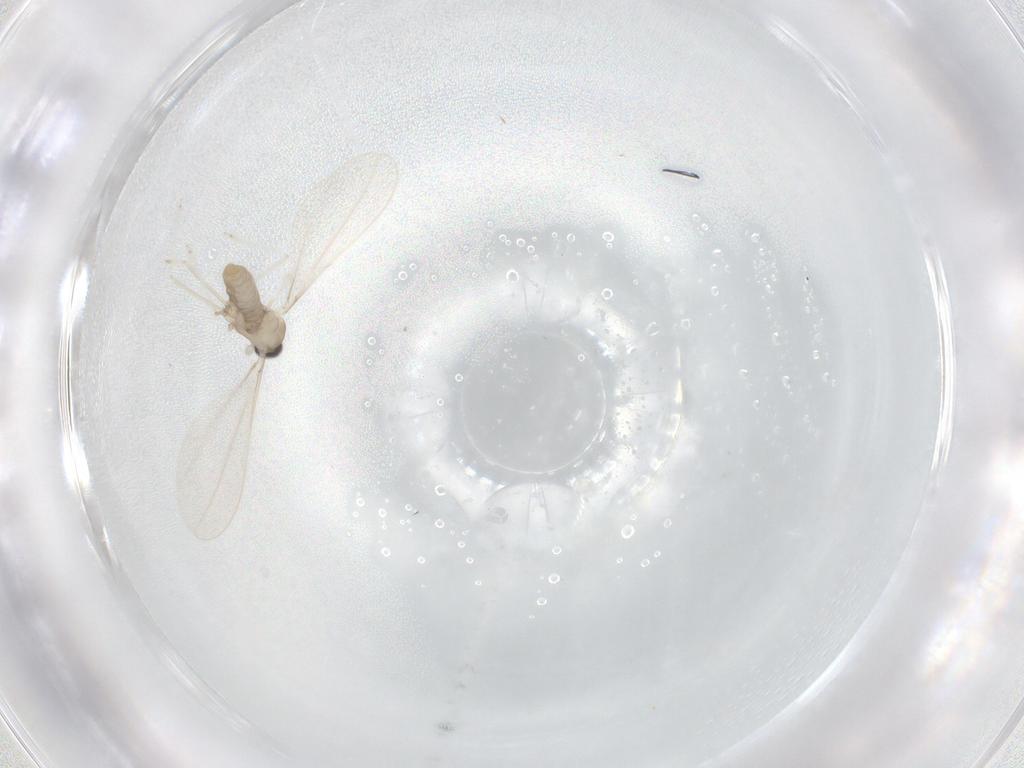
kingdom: Animalia
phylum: Arthropoda
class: Insecta
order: Diptera
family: Cecidomyiidae
